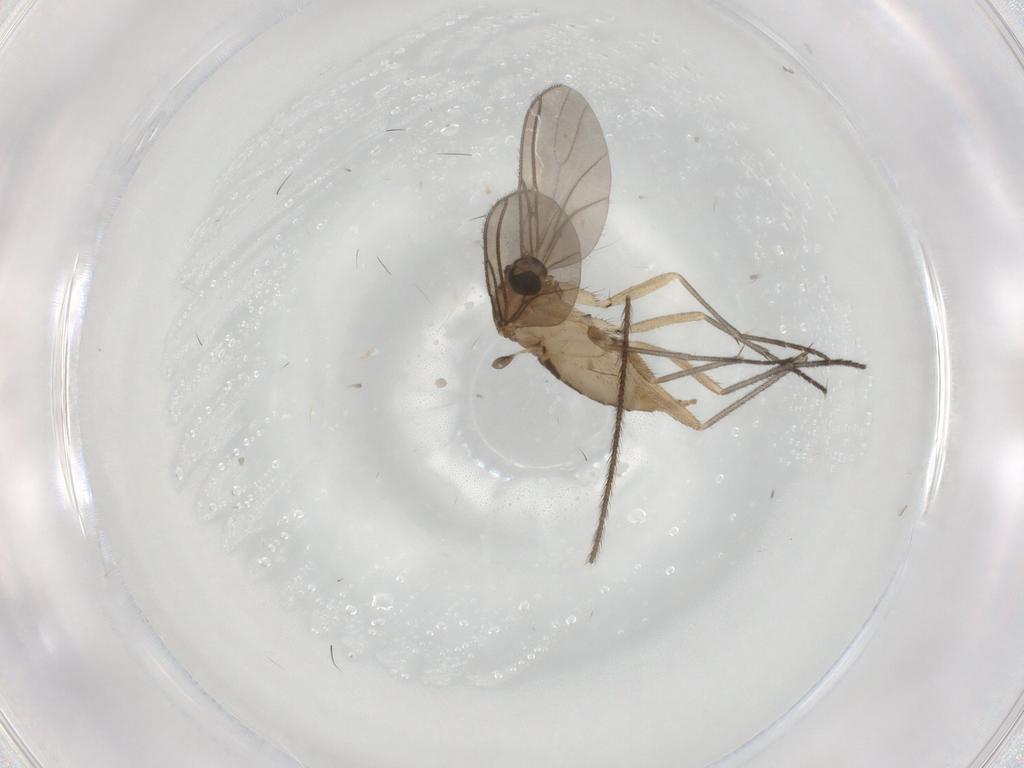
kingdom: Animalia
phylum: Arthropoda
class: Insecta
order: Diptera
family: Sciaridae
